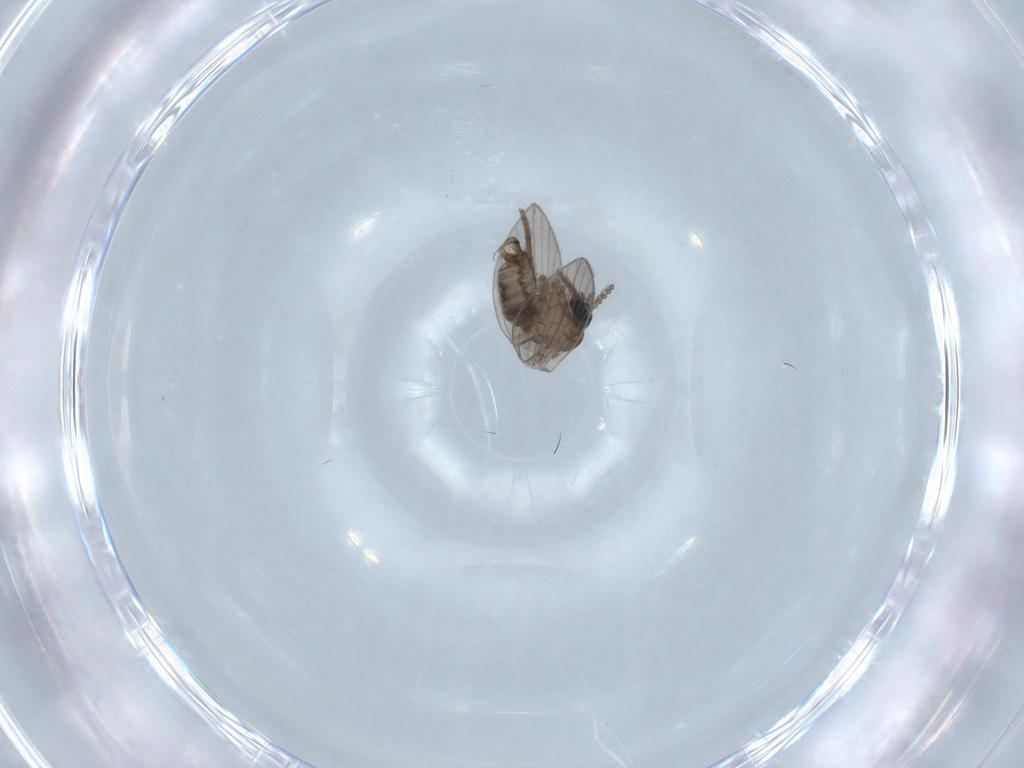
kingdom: Animalia
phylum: Arthropoda
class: Insecta
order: Diptera
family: Psychodidae
